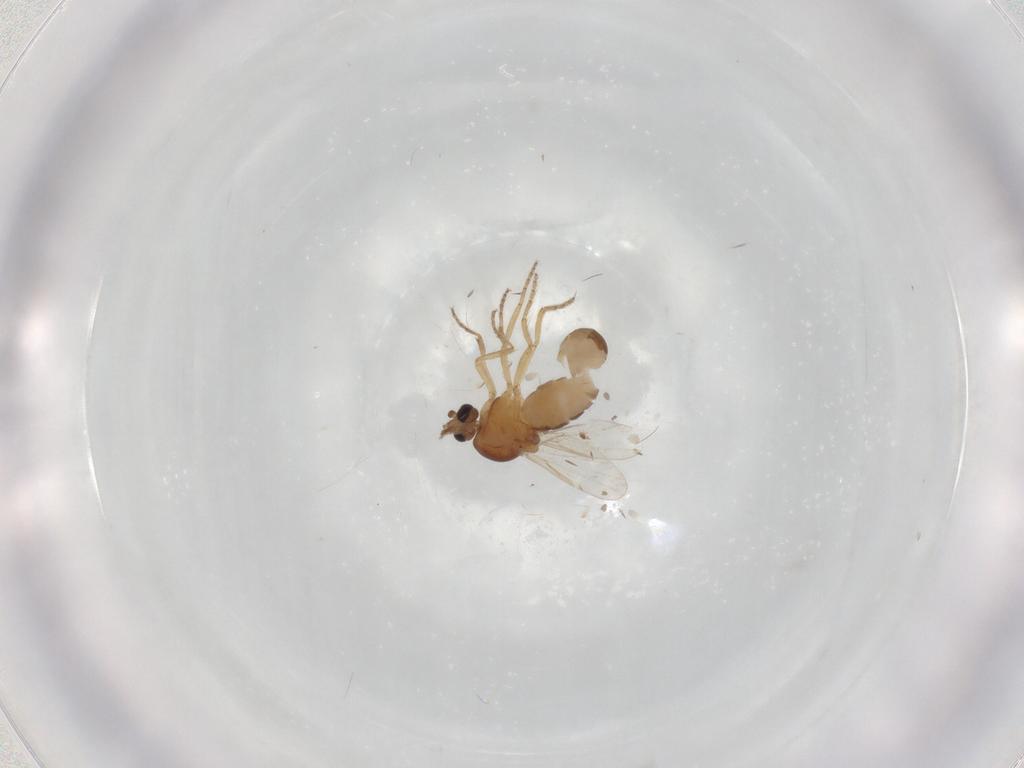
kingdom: Animalia
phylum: Arthropoda
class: Insecta
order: Diptera
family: Ceratopogonidae
